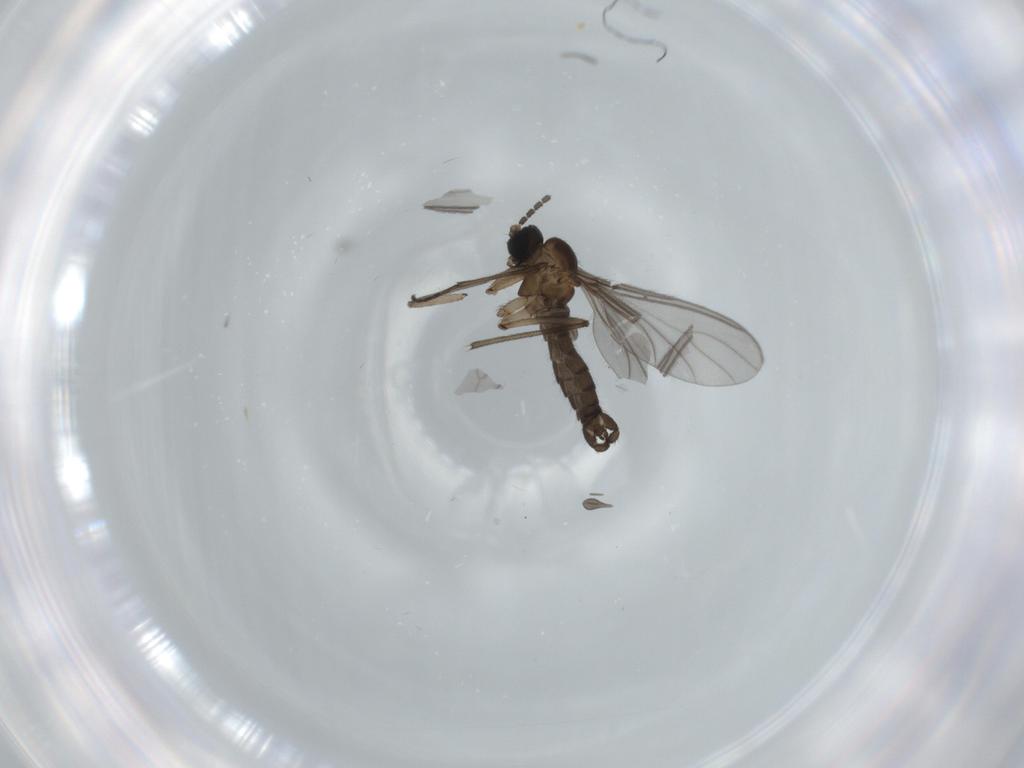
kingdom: Animalia
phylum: Arthropoda
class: Insecta
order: Diptera
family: Sciaridae
